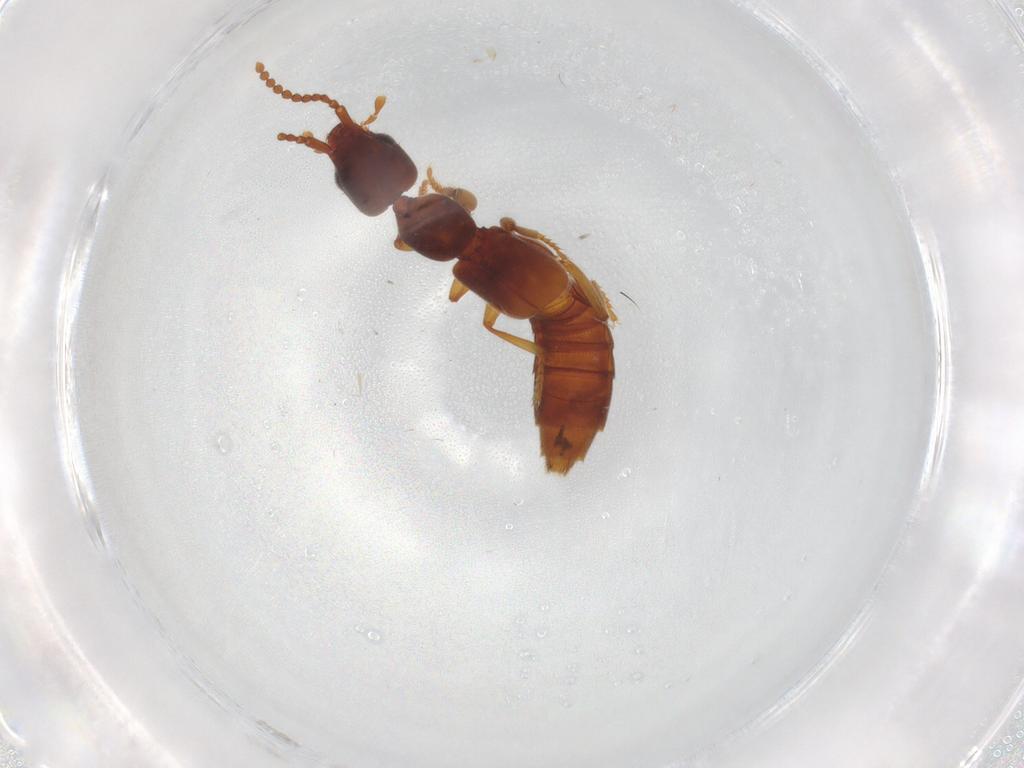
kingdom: Animalia
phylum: Arthropoda
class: Insecta
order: Coleoptera
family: Staphylinidae
